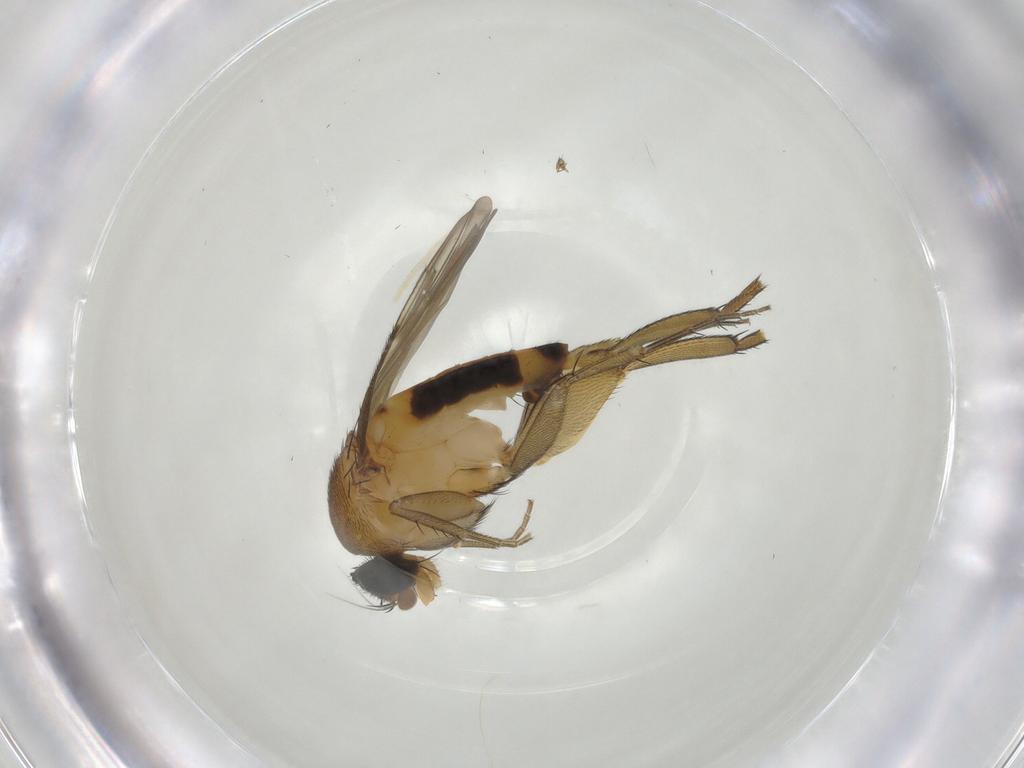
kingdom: Animalia
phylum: Arthropoda
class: Insecta
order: Diptera
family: Phoridae
